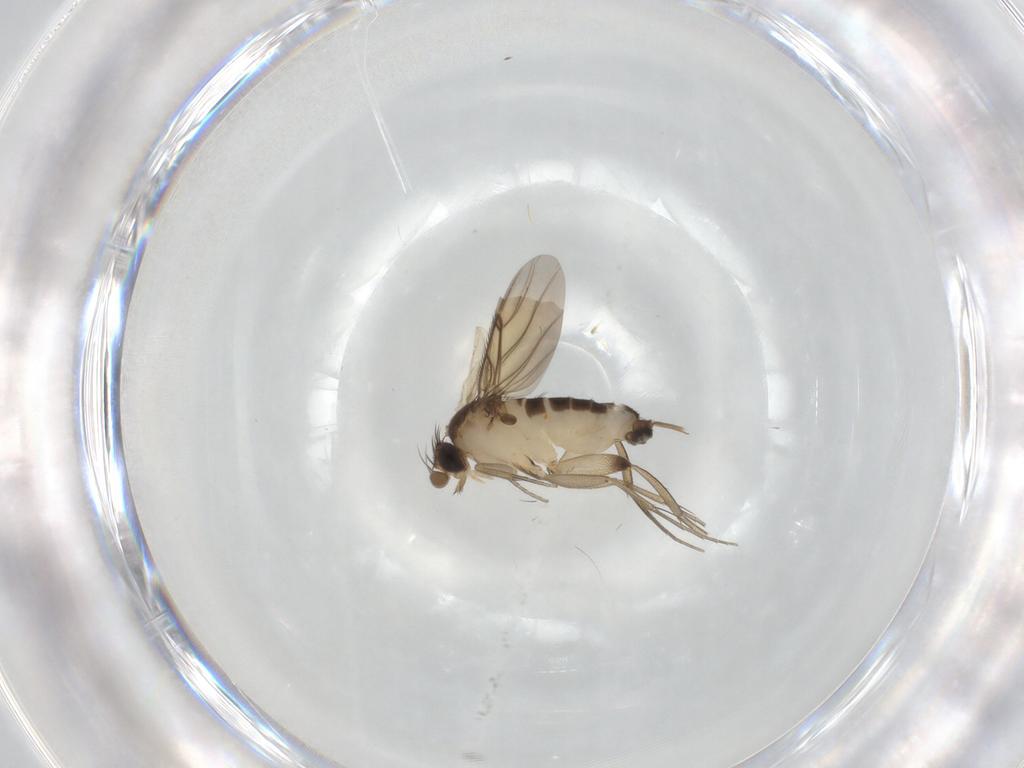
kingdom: Animalia
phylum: Arthropoda
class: Insecta
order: Diptera
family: Phoridae
